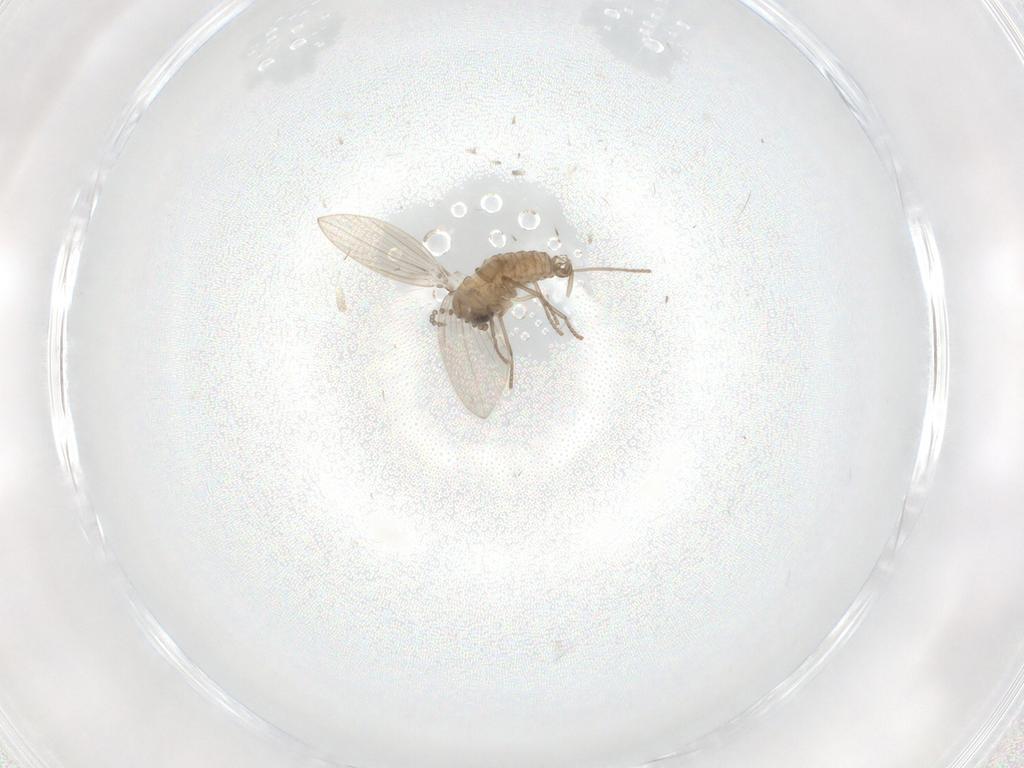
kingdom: Animalia
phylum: Arthropoda
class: Insecta
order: Diptera
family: Psychodidae
